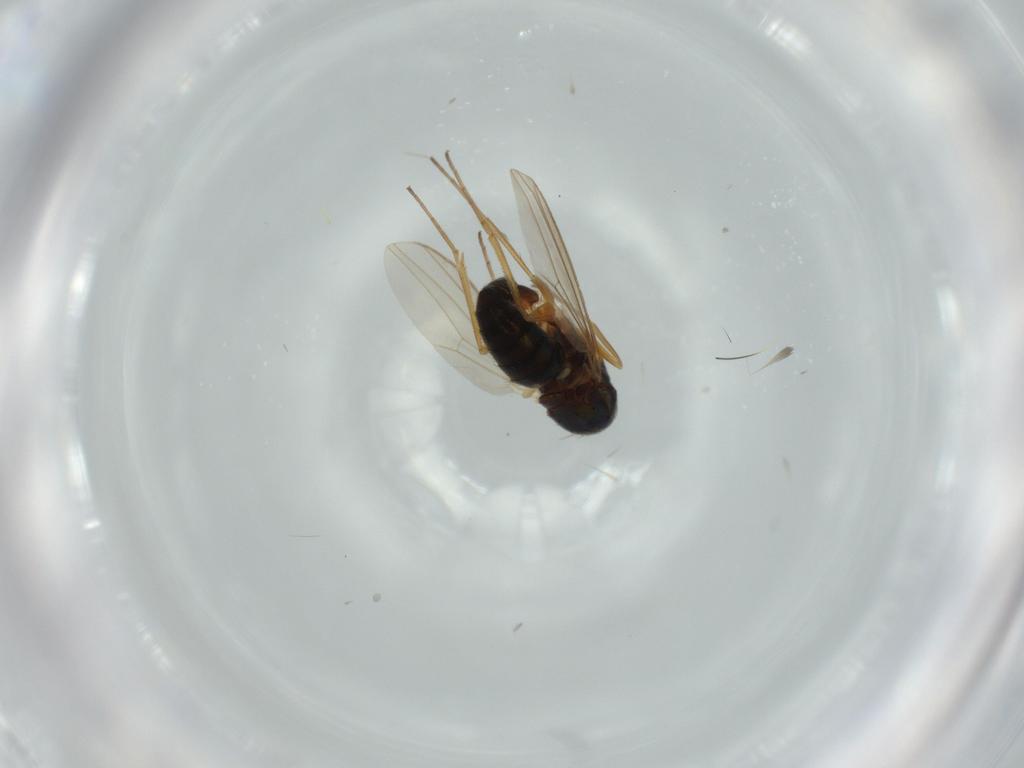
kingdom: Animalia
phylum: Arthropoda
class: Insecta
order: Diptera
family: Dolichopodidae
